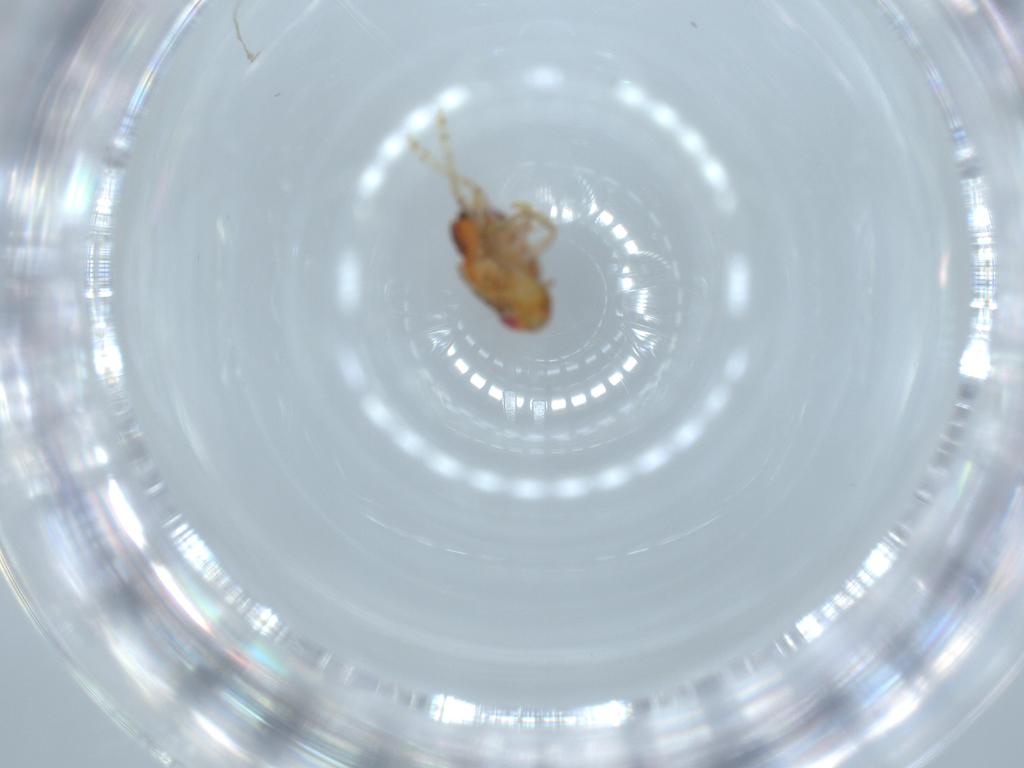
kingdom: Animalia
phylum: Arthropoda
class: Insecta
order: Hemiptera
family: Issidae
